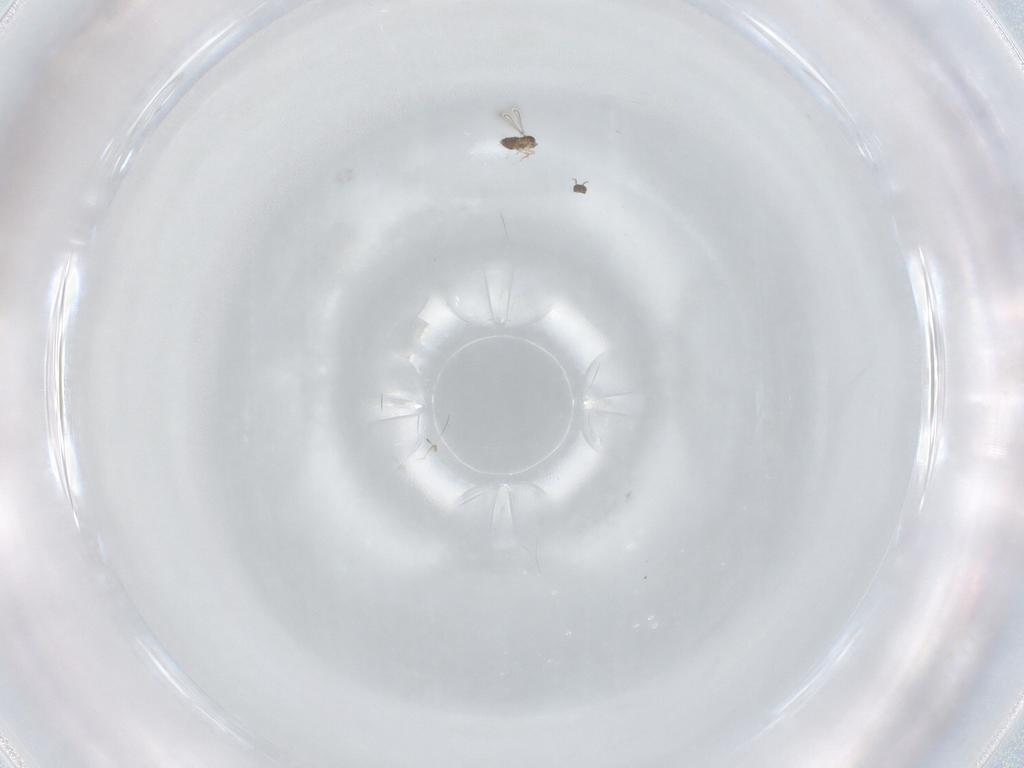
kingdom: Animalia
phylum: Arthropoda
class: Insecta
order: Hymenoptera
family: Mymaridae
